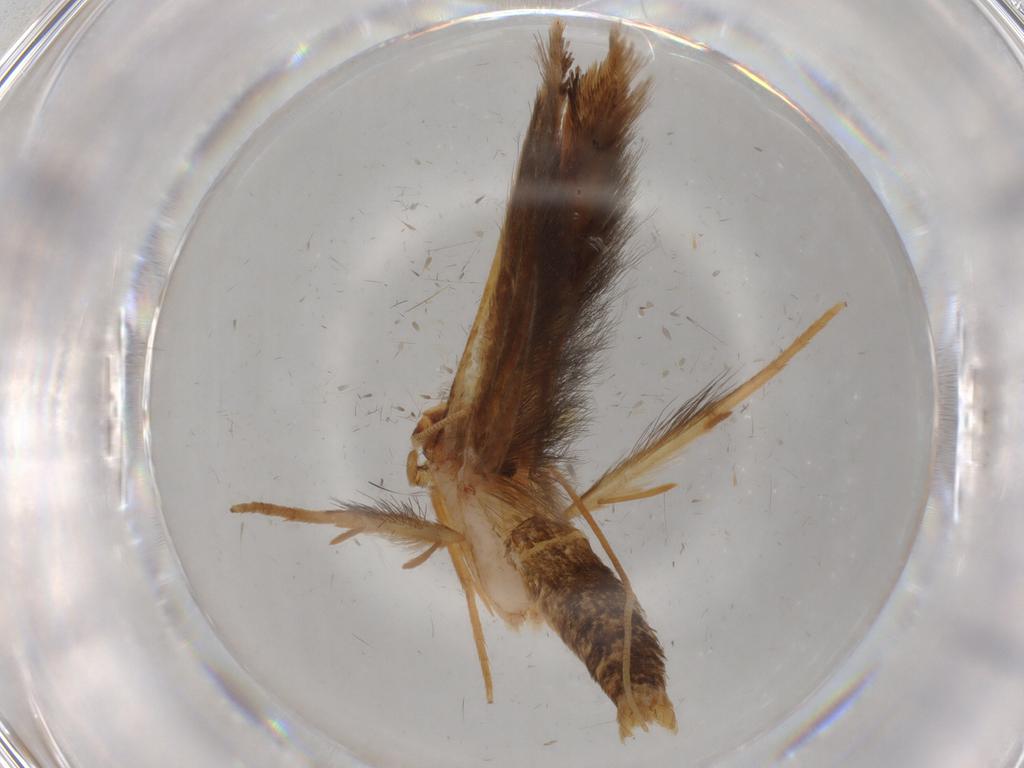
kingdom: Animalia
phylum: Arthropoda
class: Insecta
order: Lepidoptera
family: Tineidae
